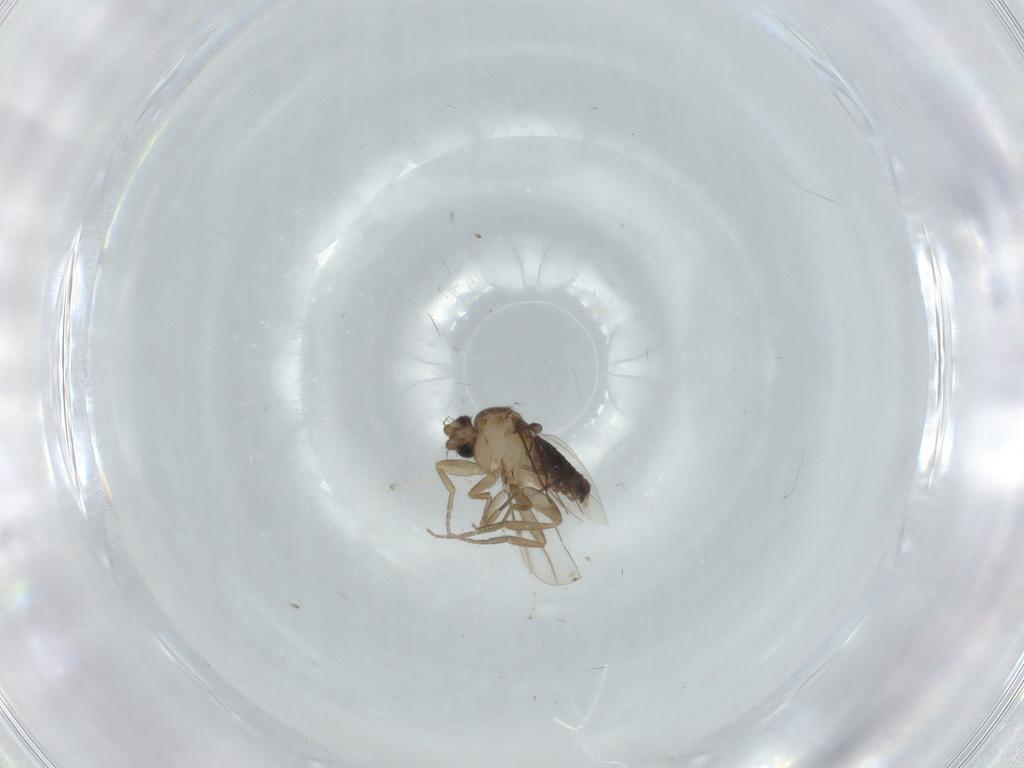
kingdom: Animalia
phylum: Arthropoda
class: Insecta
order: Diptera
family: Phoridae
